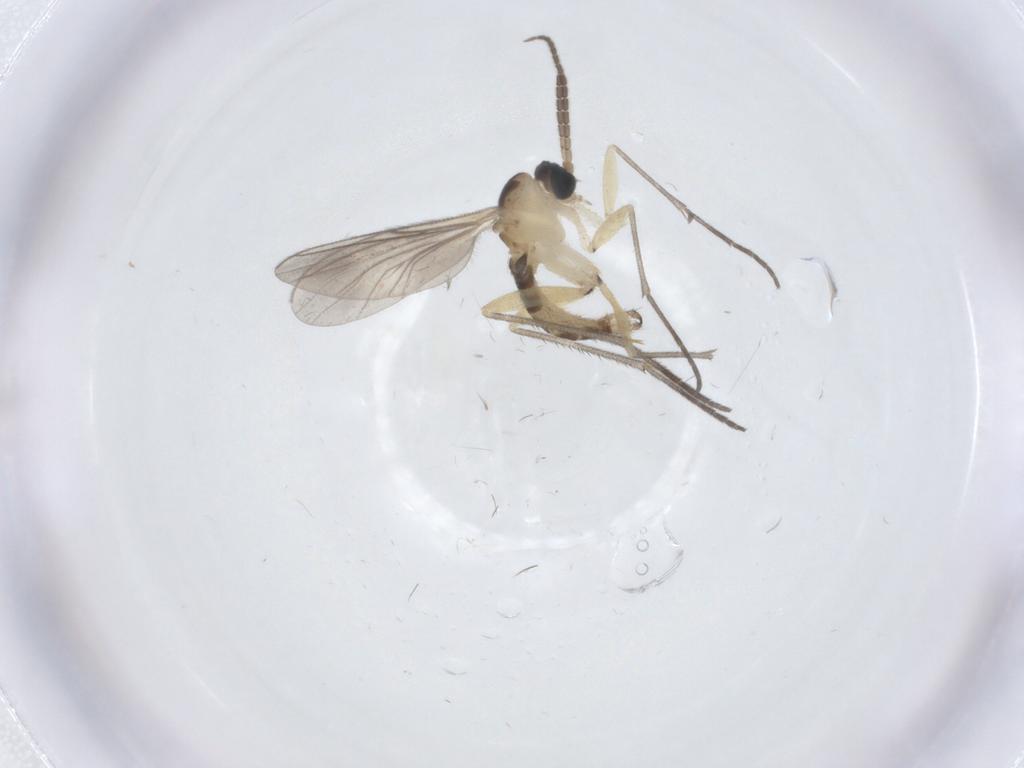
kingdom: Animalia
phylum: Arthropoda
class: Insecta
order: Diptera
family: Sciaridae
